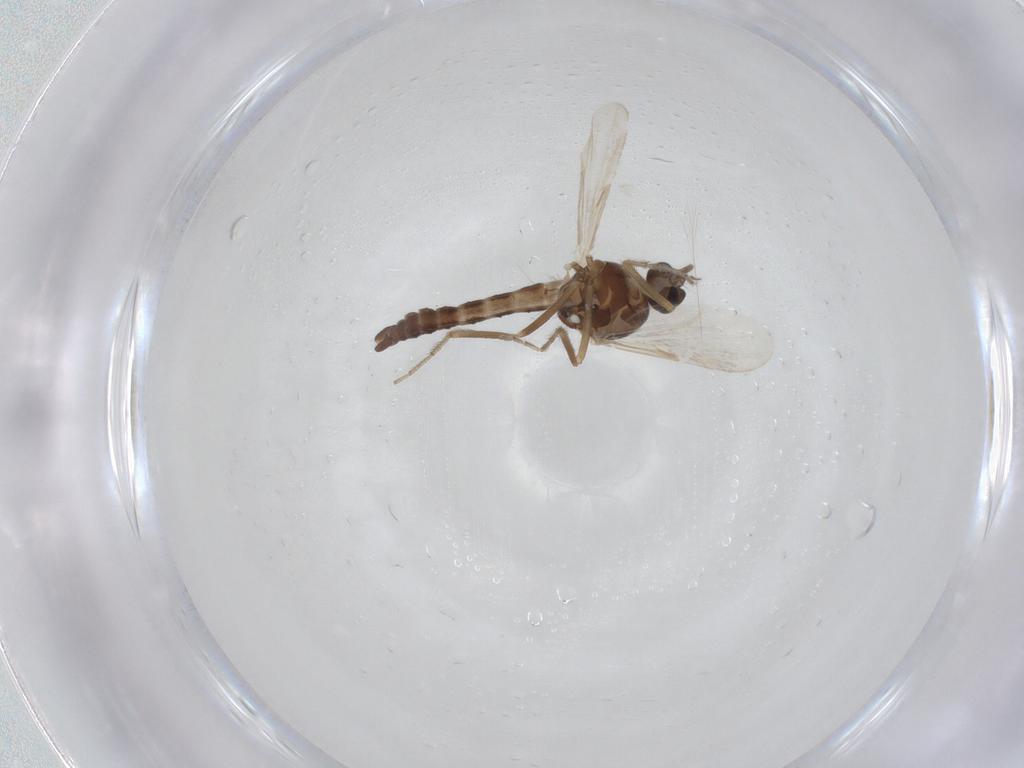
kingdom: Animalia
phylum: Arthropoda
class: Insecta
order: Diptera
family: Ceratopogonidae
